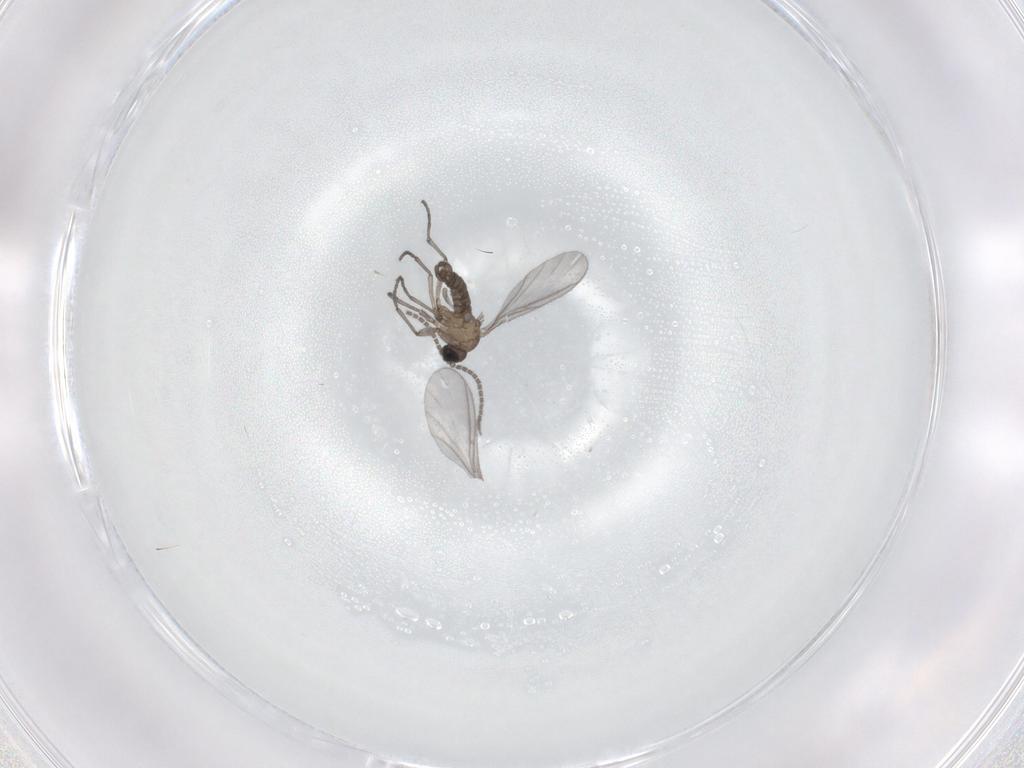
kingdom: Animalia
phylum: Arthropoda
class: Insecta
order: Diptera
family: Sciaridae
